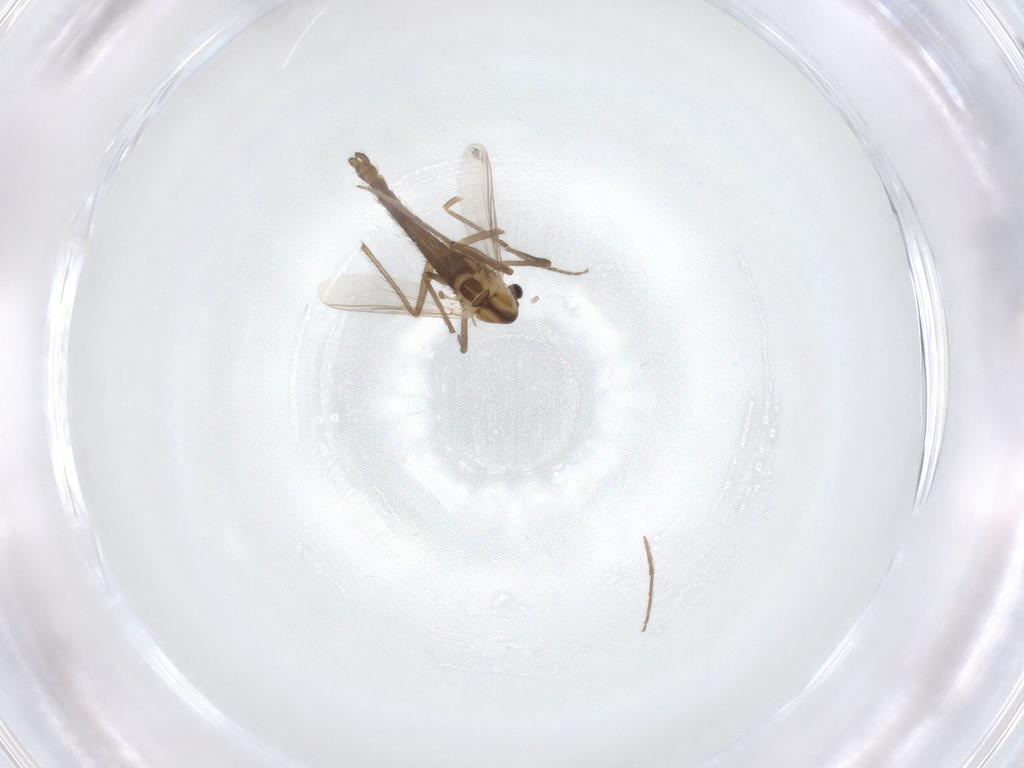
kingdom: Animalia
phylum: Arthropoda
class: Insecta
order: Diptera
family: Chironomidae
